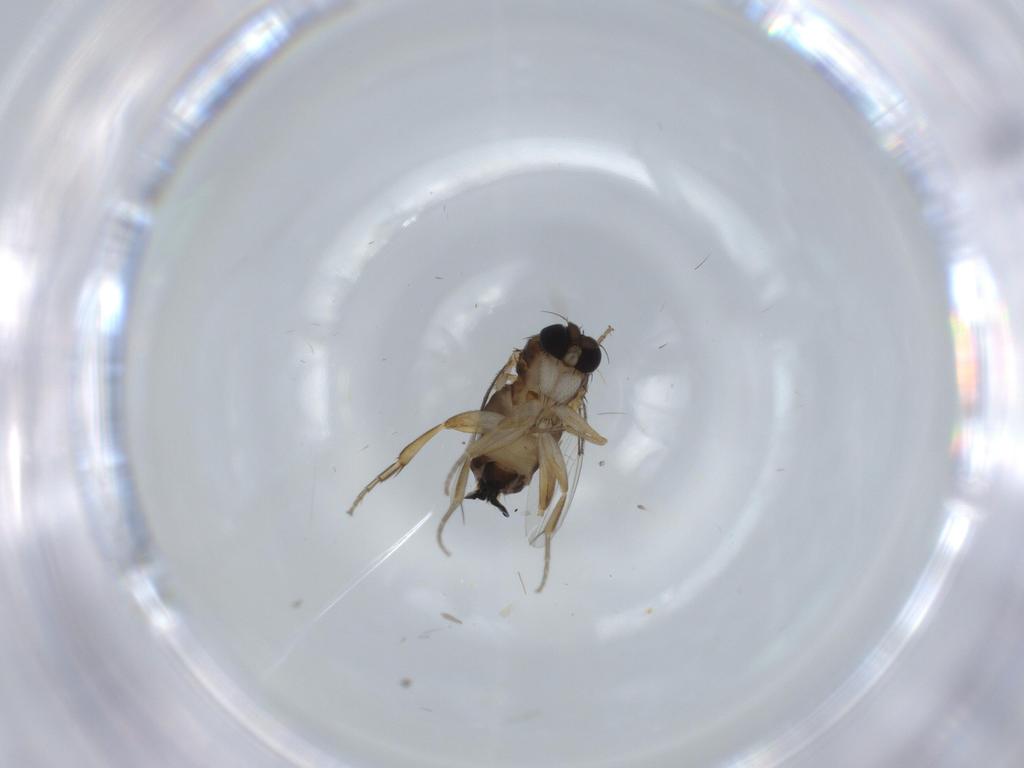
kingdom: Animalia
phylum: Arthropoda
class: Insecta
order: Diptera
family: Phoridae
